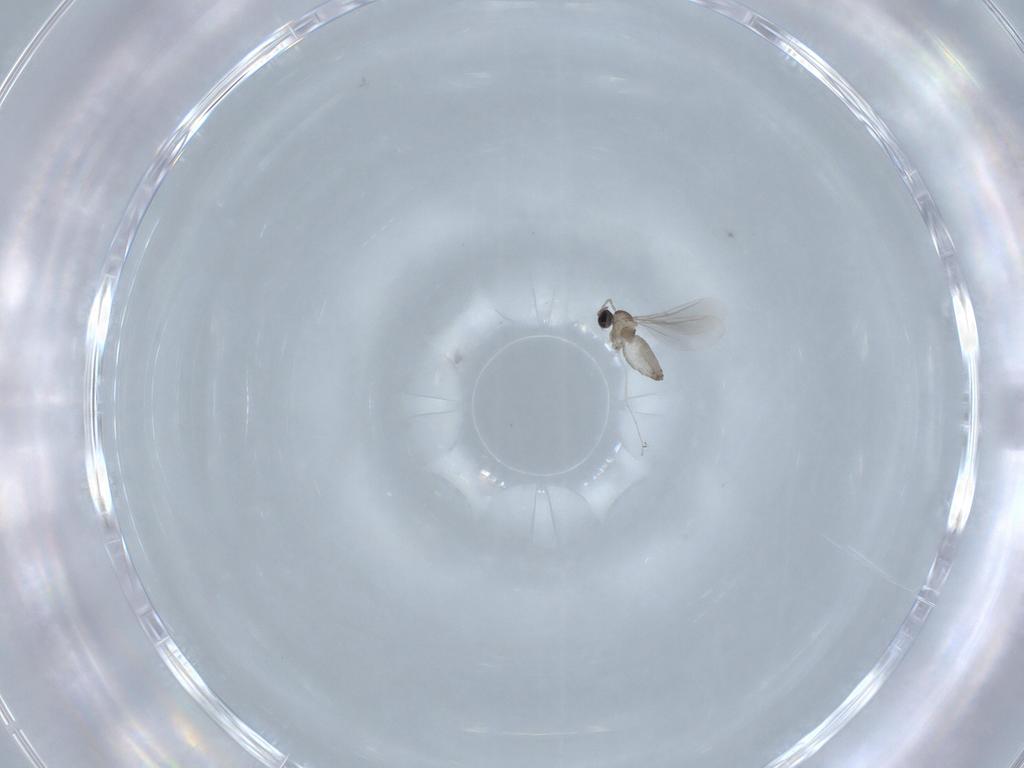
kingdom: Animalia
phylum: Arthropoda
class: Insecta
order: Diptera
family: Cecidomyiidae
